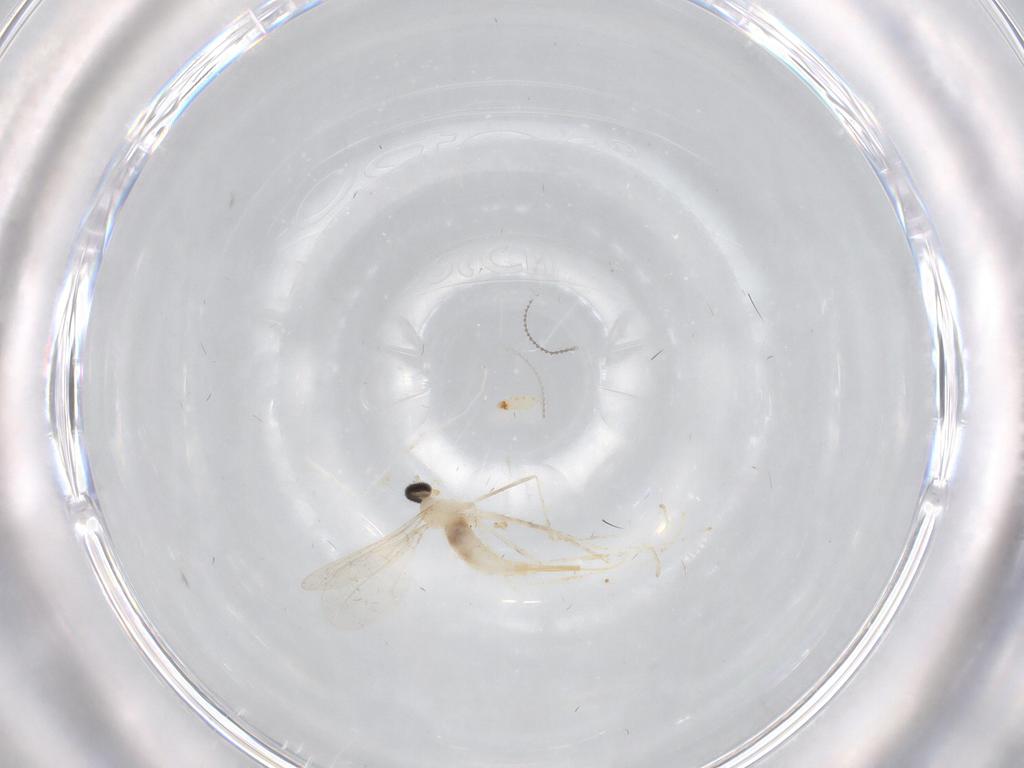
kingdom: Animalia
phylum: Arthropoda
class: Insecta
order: Diptera
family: Cecidomyiidae
